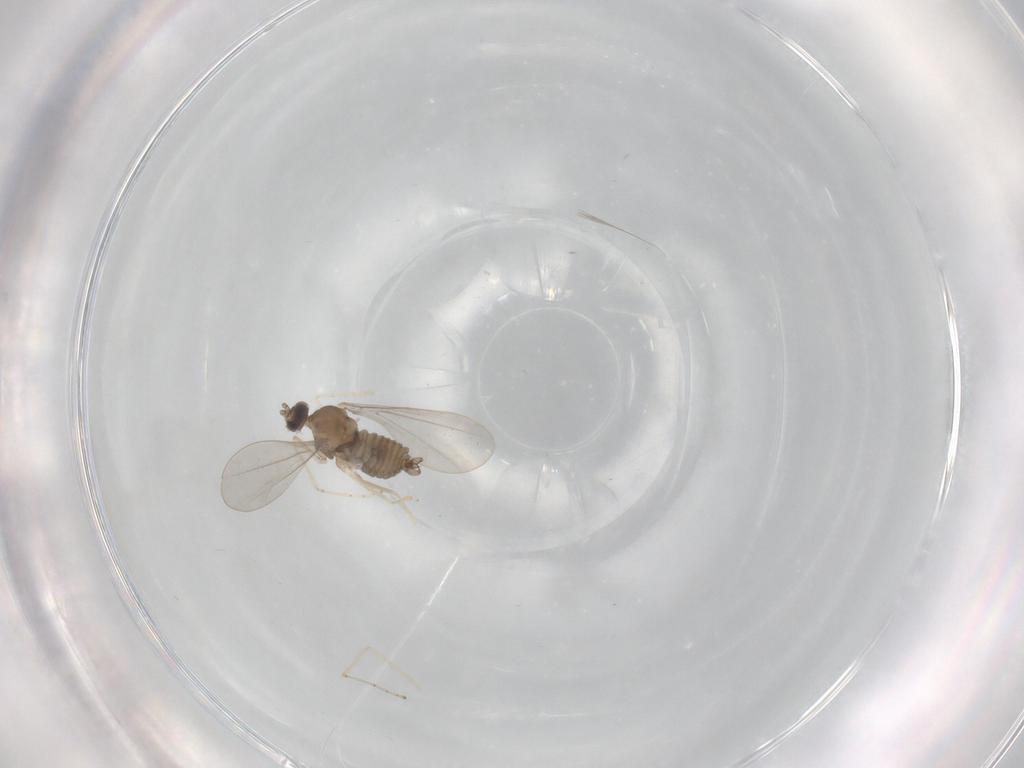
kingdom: Animalia
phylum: Arthropoda
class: Insecta
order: Diptera
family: Cecidomyiidae
